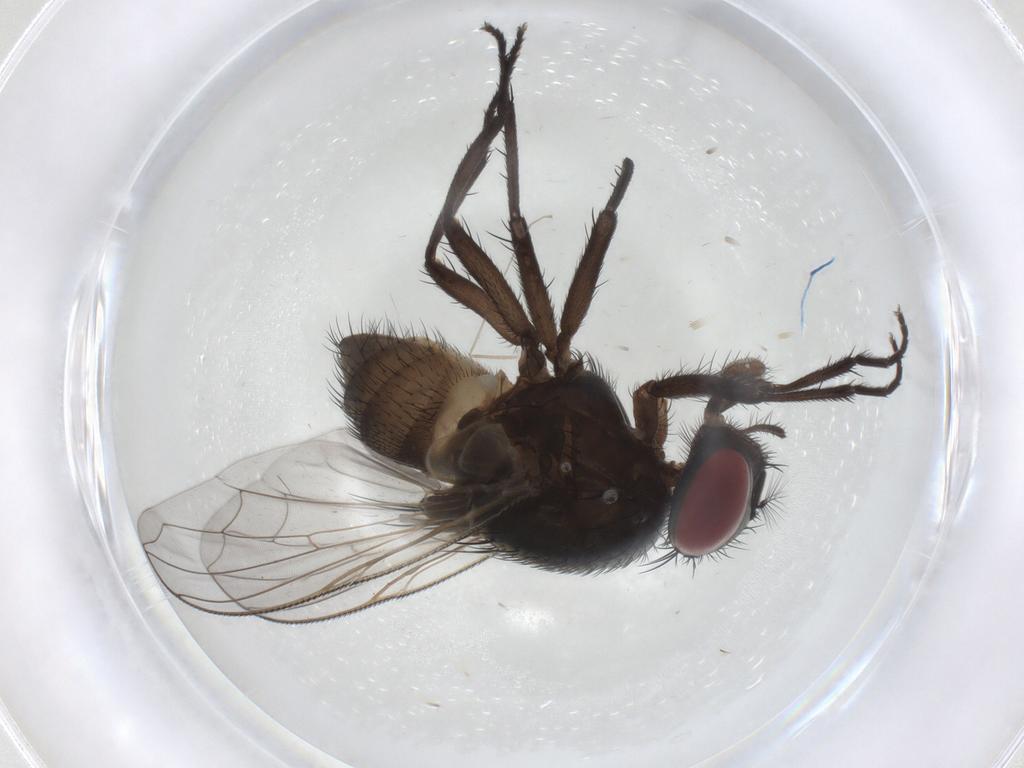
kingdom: Animalia
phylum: Arthropoda
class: Insecta
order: Diptera
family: Muscidae
